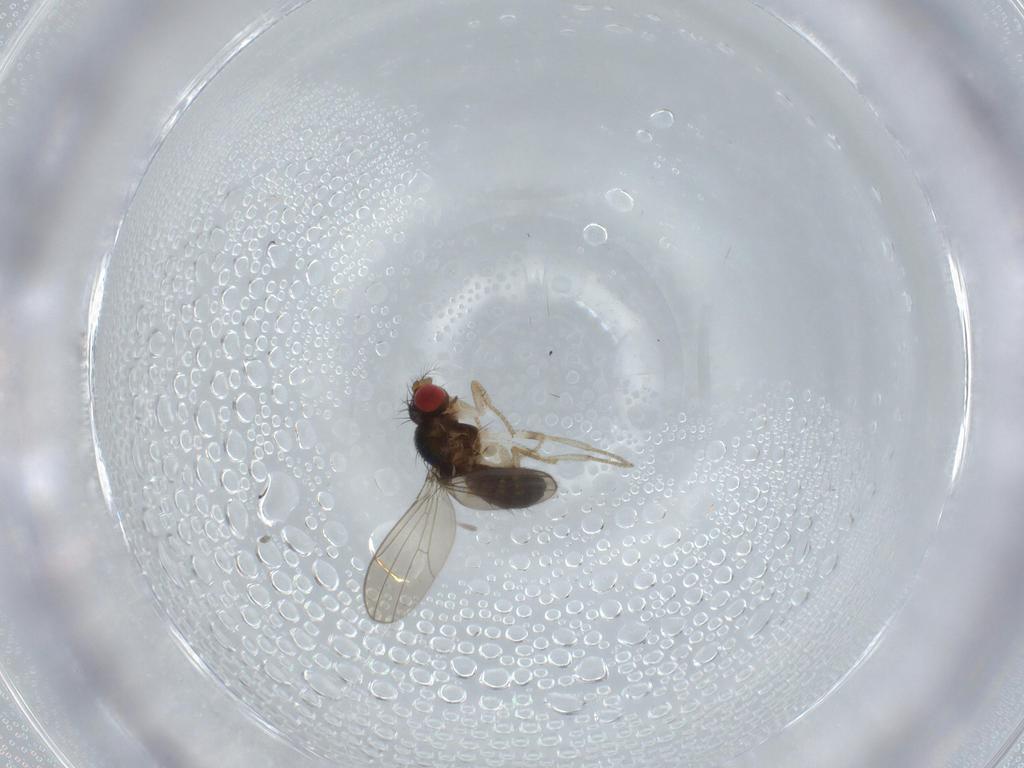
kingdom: Animalia
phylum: Arthropoda
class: Insecta
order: Diptera
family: Drosophilidae
